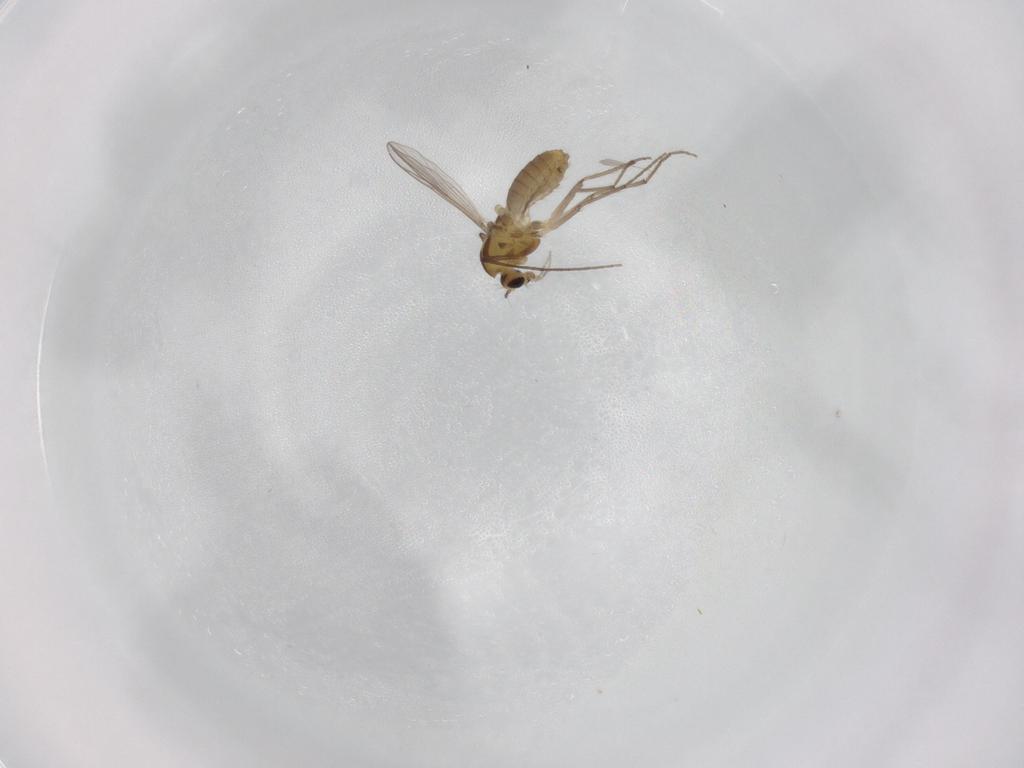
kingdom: Animalia
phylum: Arthropoda
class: Insecta
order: Diptera
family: Chironomidae
